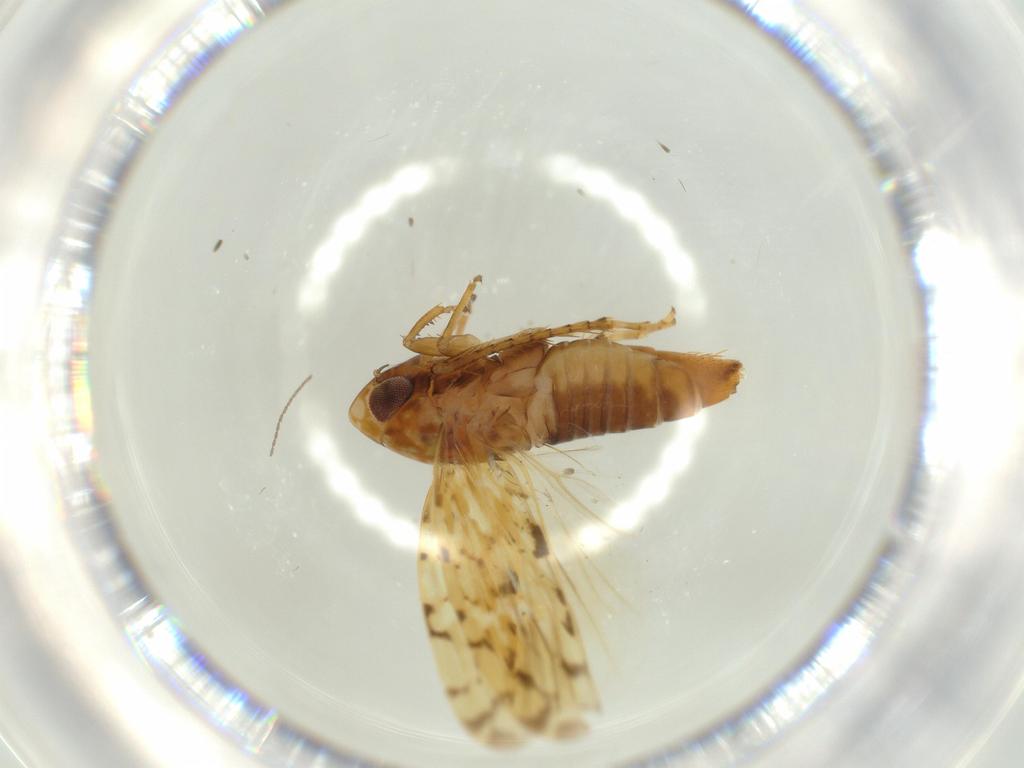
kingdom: Animalia
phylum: Arthropoda
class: Insecta
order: Hemiptera
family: Cicadellidae
